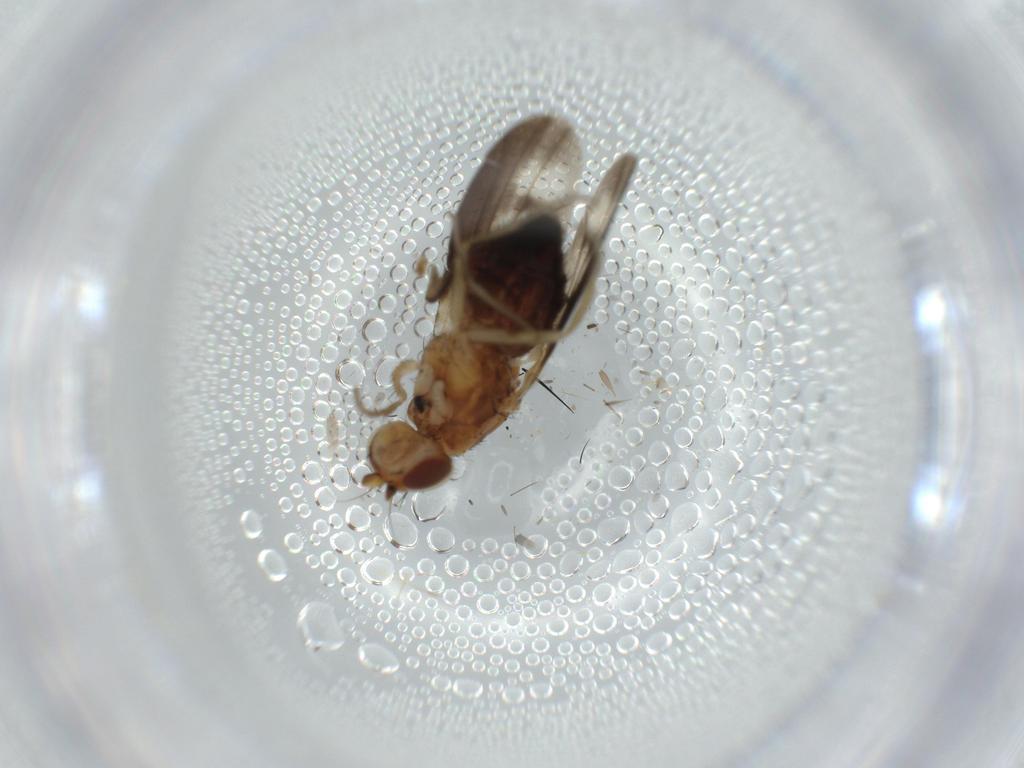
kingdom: Animalia
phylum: Arthropoda
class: Insecta
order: Diptera
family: Heleomyzidae
